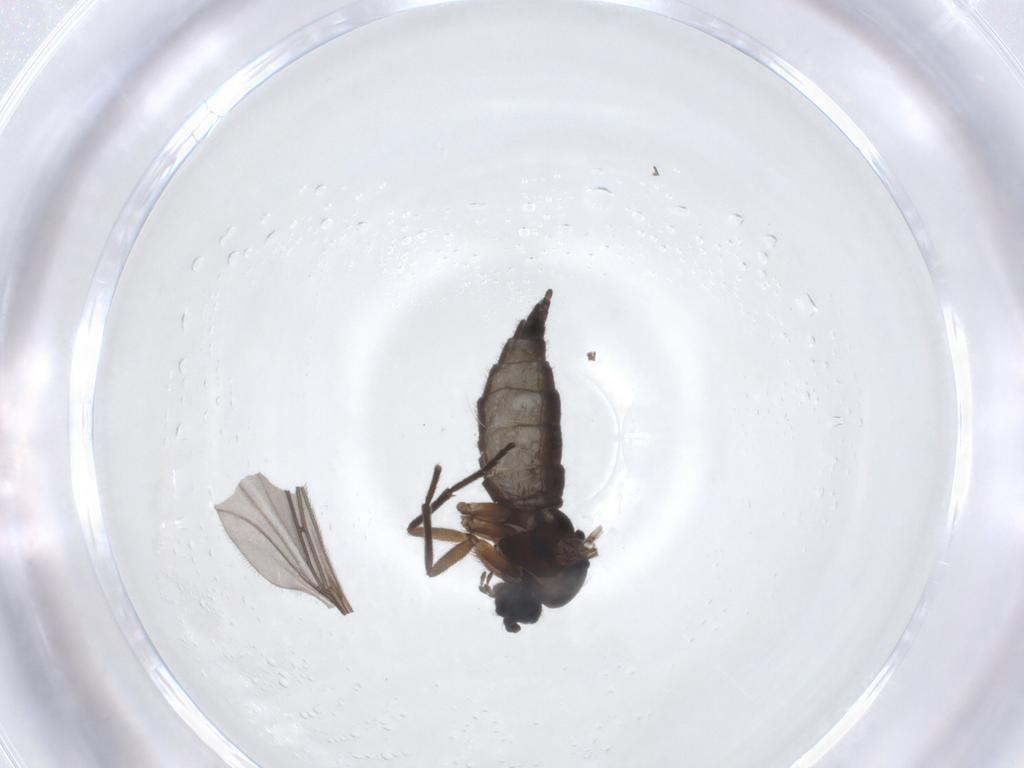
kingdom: Animalia
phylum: Arthropoda
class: Insecta
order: Diptera
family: Sciaridae
